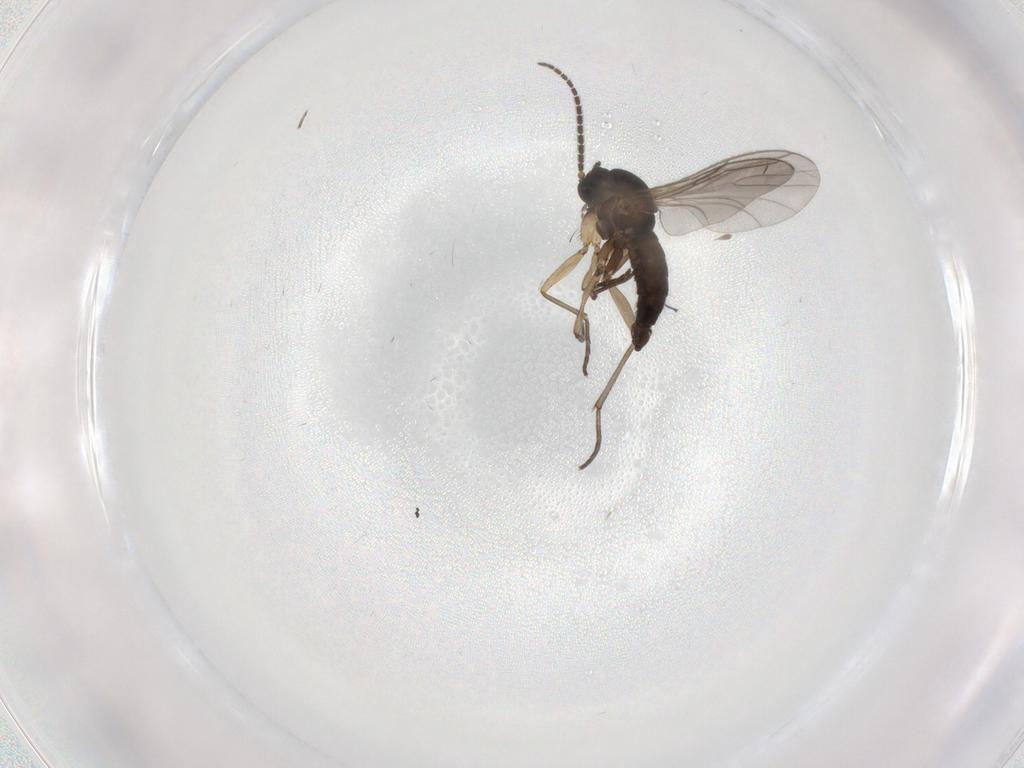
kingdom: Animalia
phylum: Arthropoda
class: Insecta
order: Diptera
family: Sciaridae
